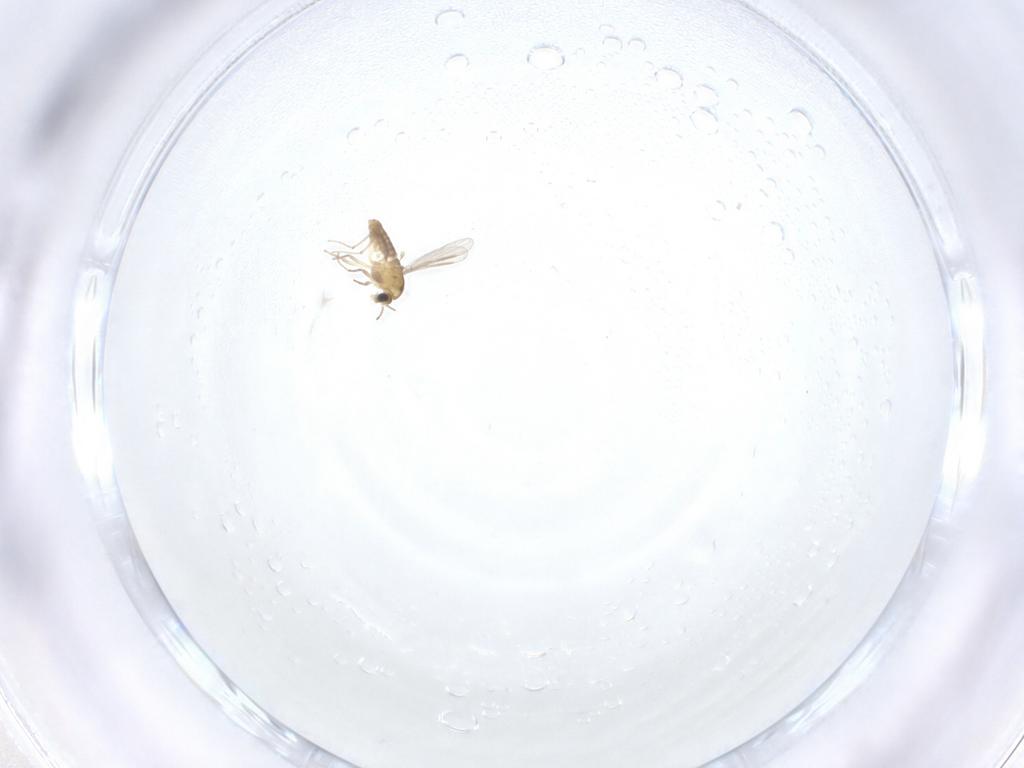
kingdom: Animalia
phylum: Arthropoda
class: Insecta
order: Diptera
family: Chironomidae
